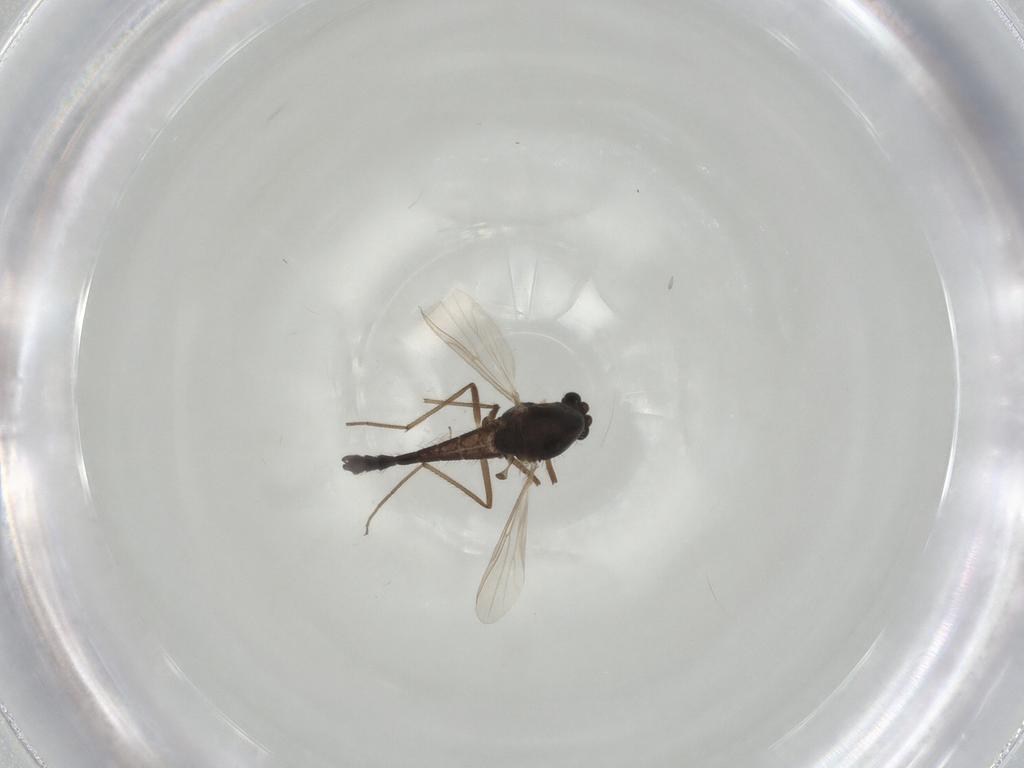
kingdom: Animalia
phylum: Arthropoda
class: Insecta
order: Diptera
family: Chironomidae
